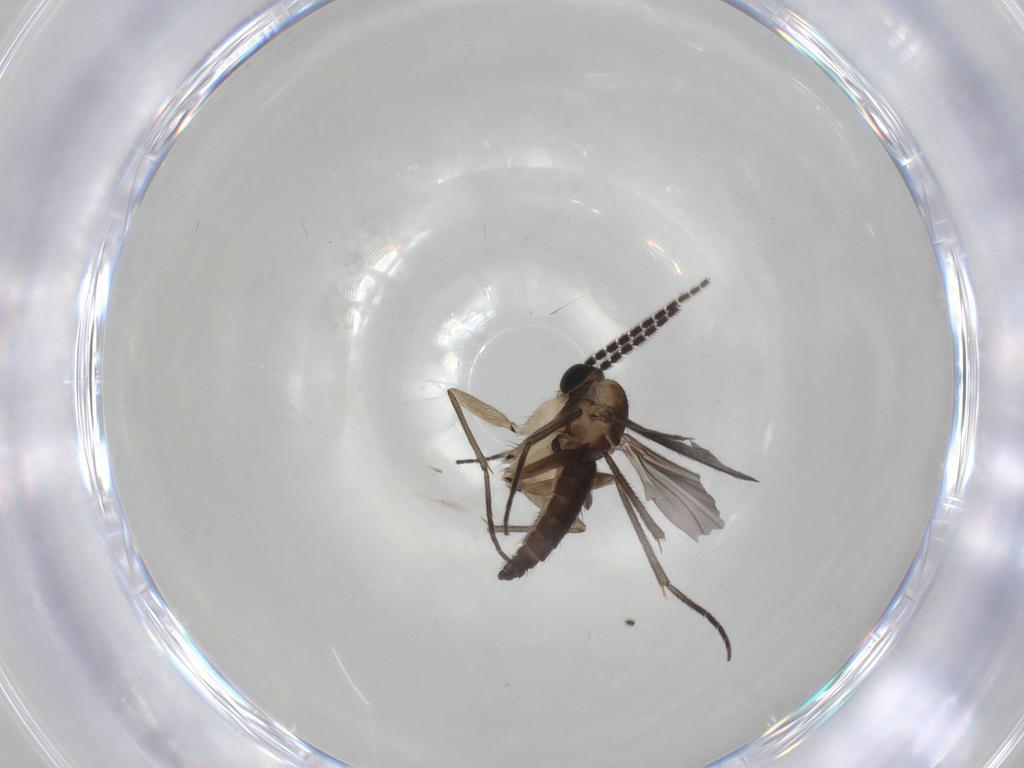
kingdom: Animalia
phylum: Arthropoda
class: Insecta
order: Diptera
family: Sciaridae
